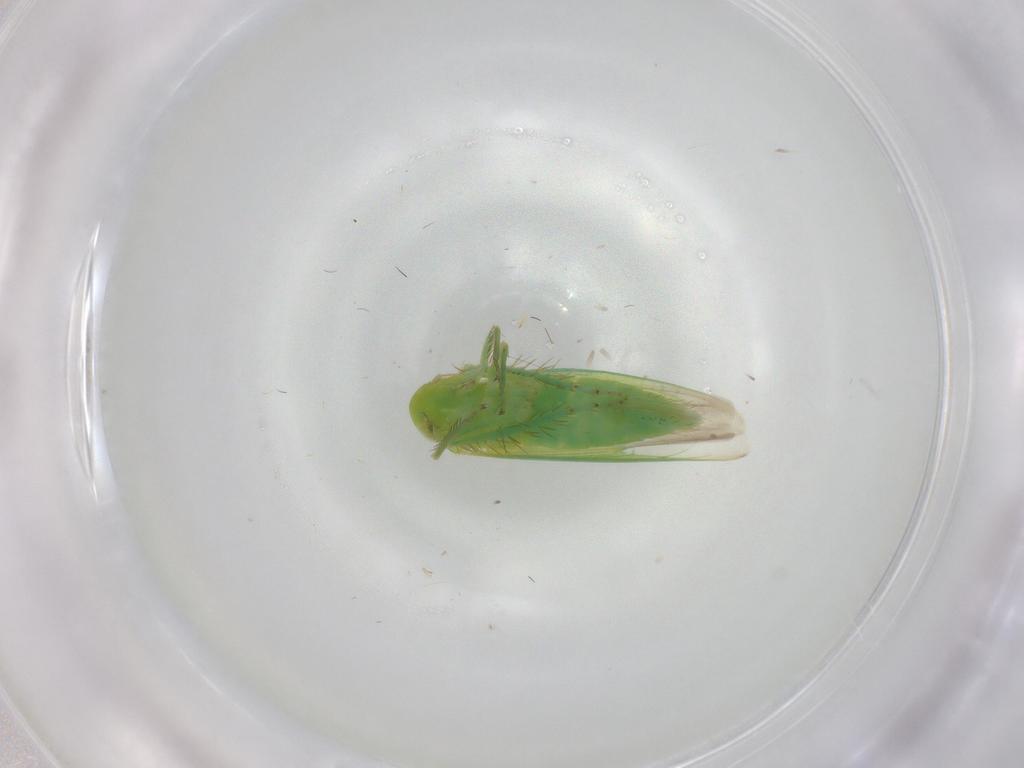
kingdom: Animalia
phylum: Arthropoda
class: Insecta
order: Hemiptera
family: Cicadellidae
